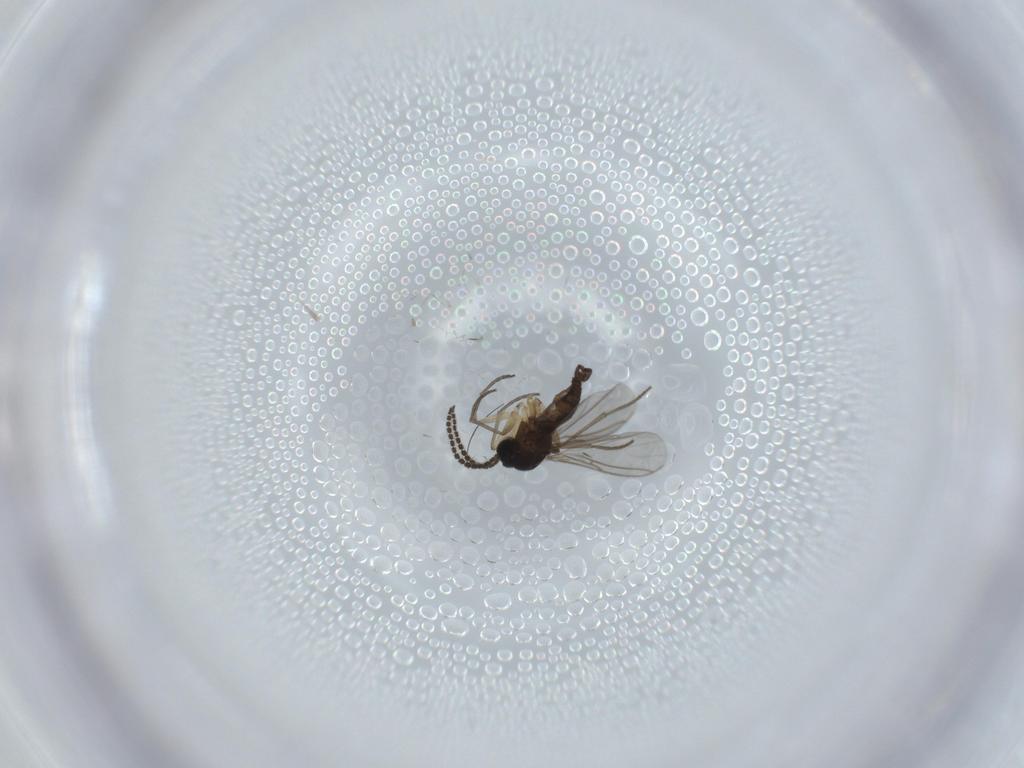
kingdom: Animalia
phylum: Arthropoda
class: Insecta
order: Diptera
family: Sciaridae
